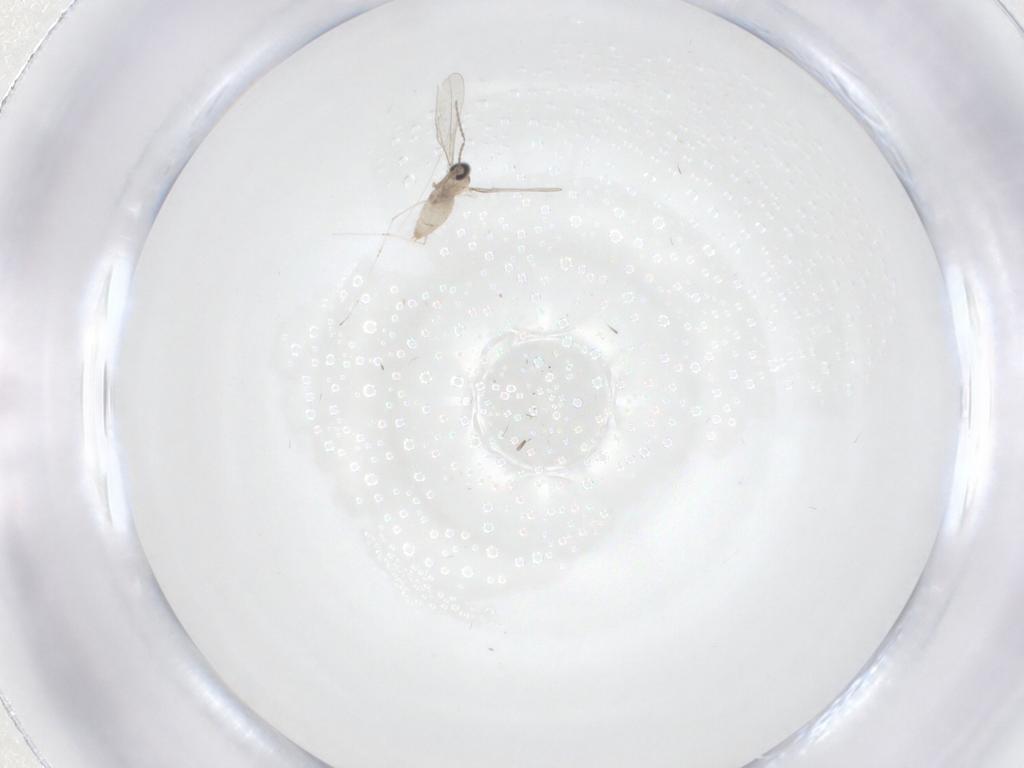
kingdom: Animalia
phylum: Arthropoda
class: Insecta
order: Diptera
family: Cecidomyiidae
